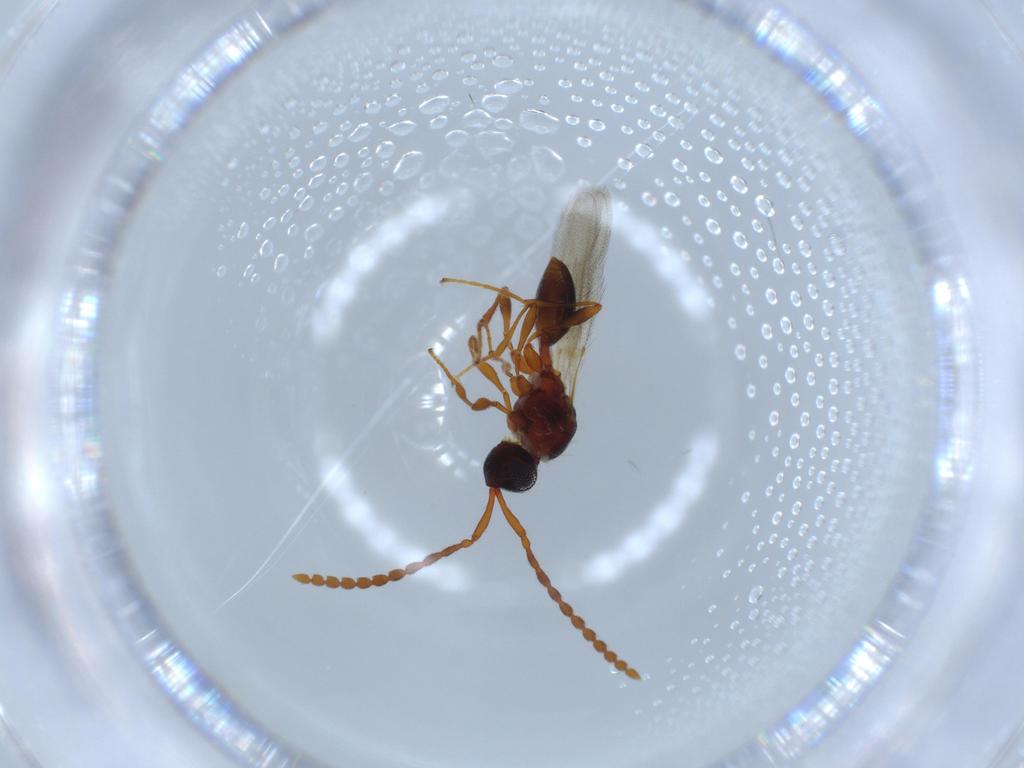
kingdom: Animalia
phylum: Arthropoda
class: Insecta
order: Hymenoptera
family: Diapriidae
